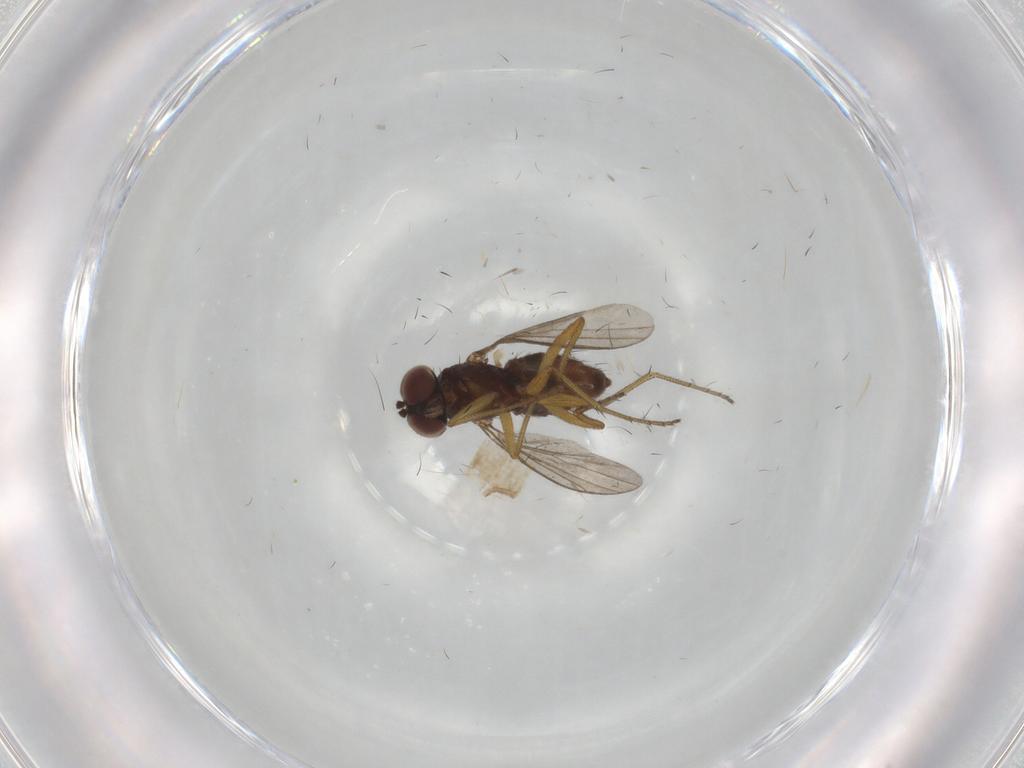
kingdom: Animalia
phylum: Arthropoda
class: Insecta
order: Diptera
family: Dolichopodidae
